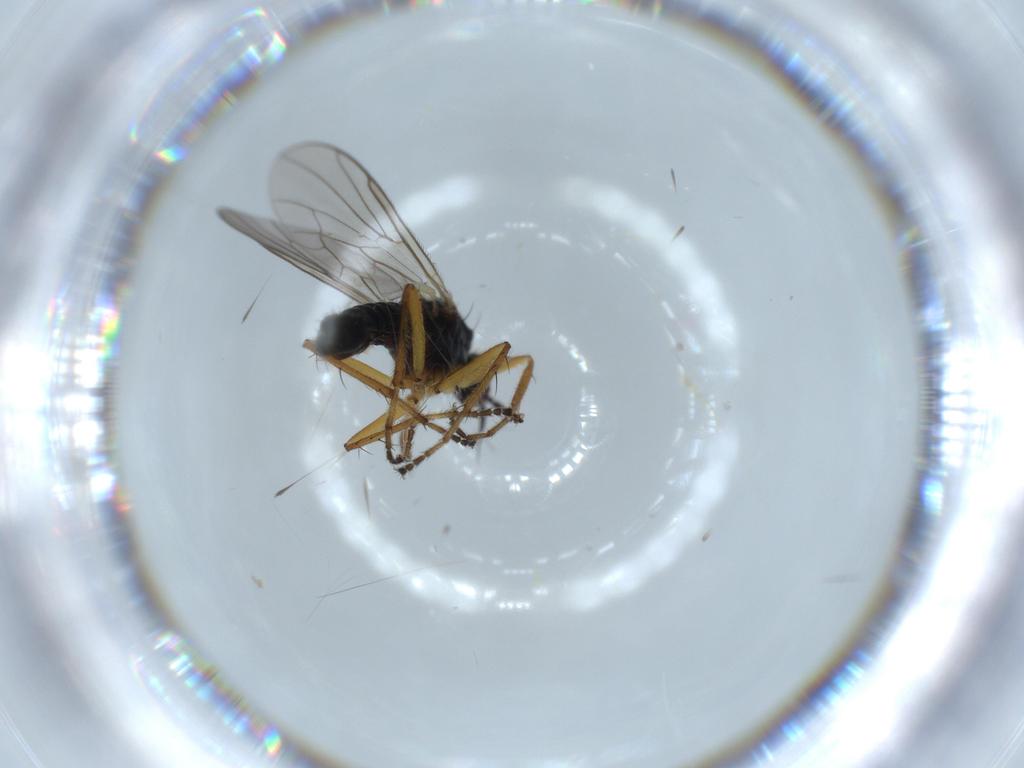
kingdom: Animalia
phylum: Arthropoda
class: Insecta
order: Diptera
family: Hybotidae
